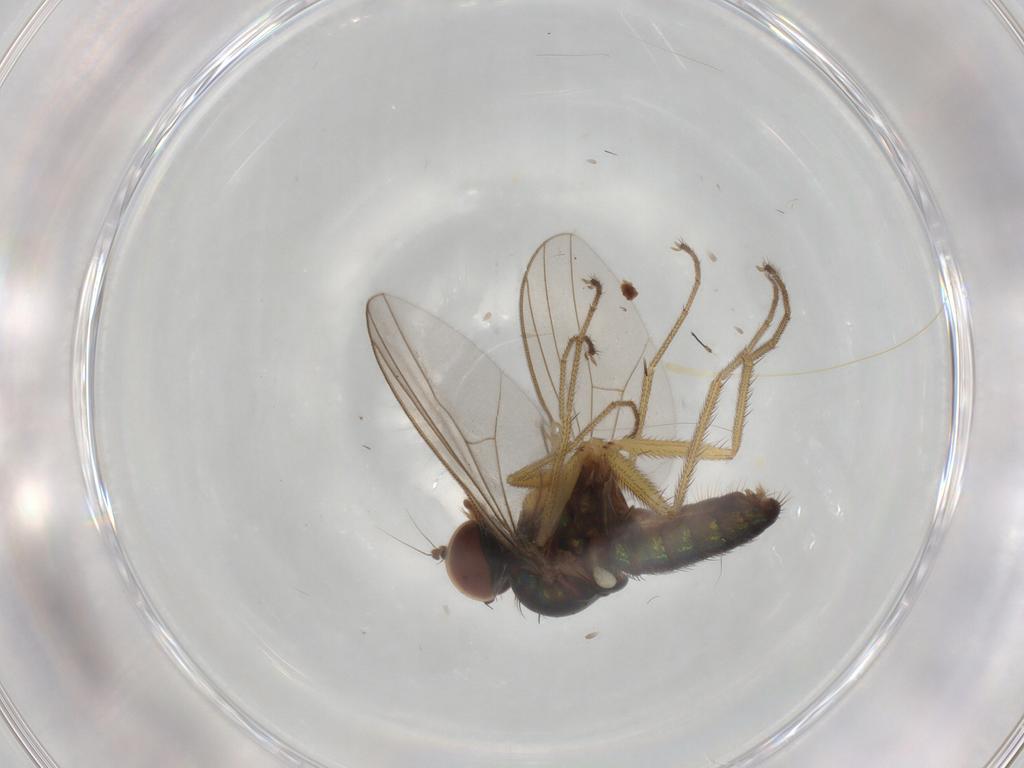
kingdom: Animalia
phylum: Arthropoda
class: Insecta
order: Diptera
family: Dolichopodidae
